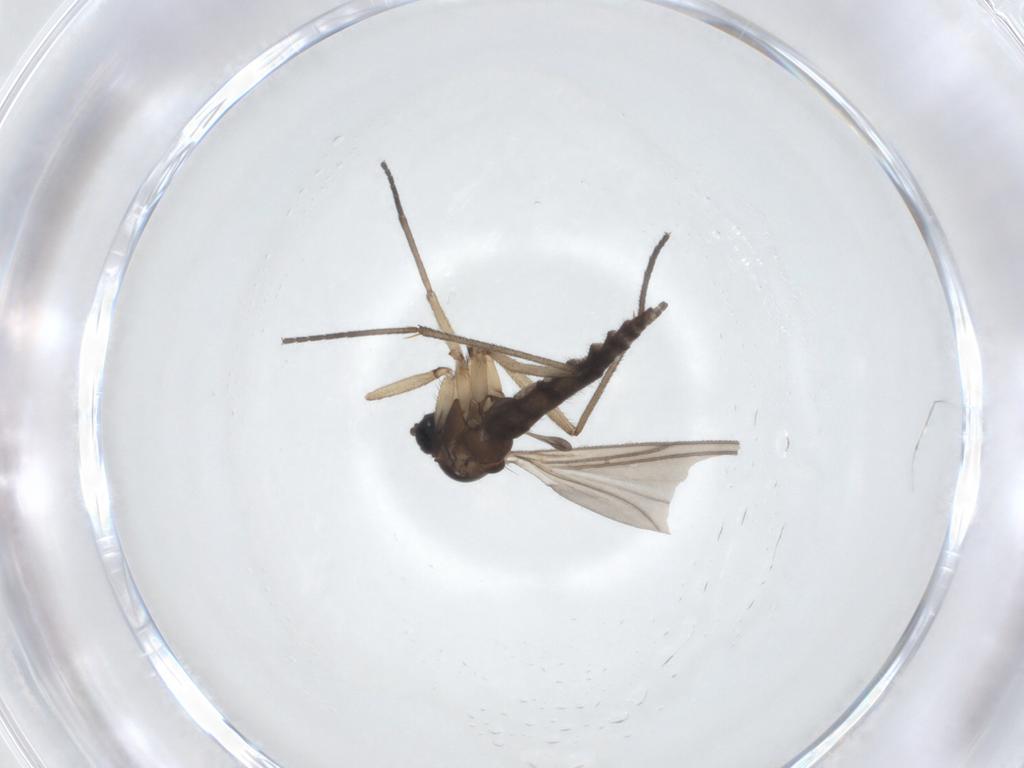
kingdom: Animalia
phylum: Arthropoda
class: Insecta
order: Diptera
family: Sciaridae
